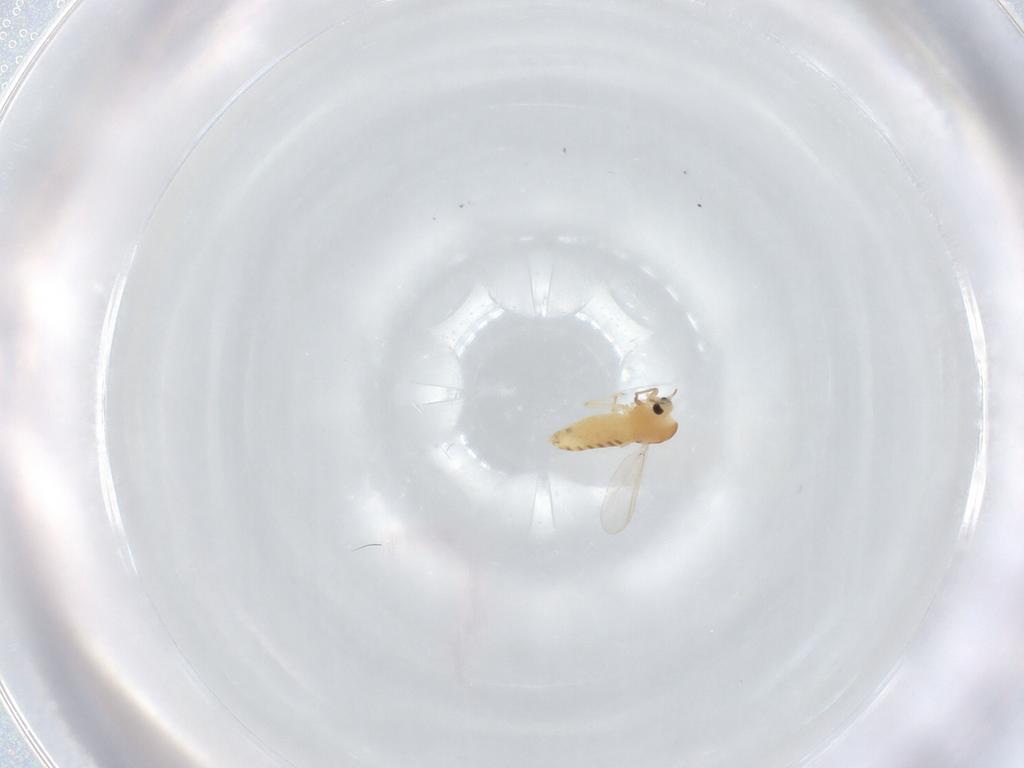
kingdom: Animalia
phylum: Arthropoda
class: Insecta
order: Diptera
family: Chironomidae
